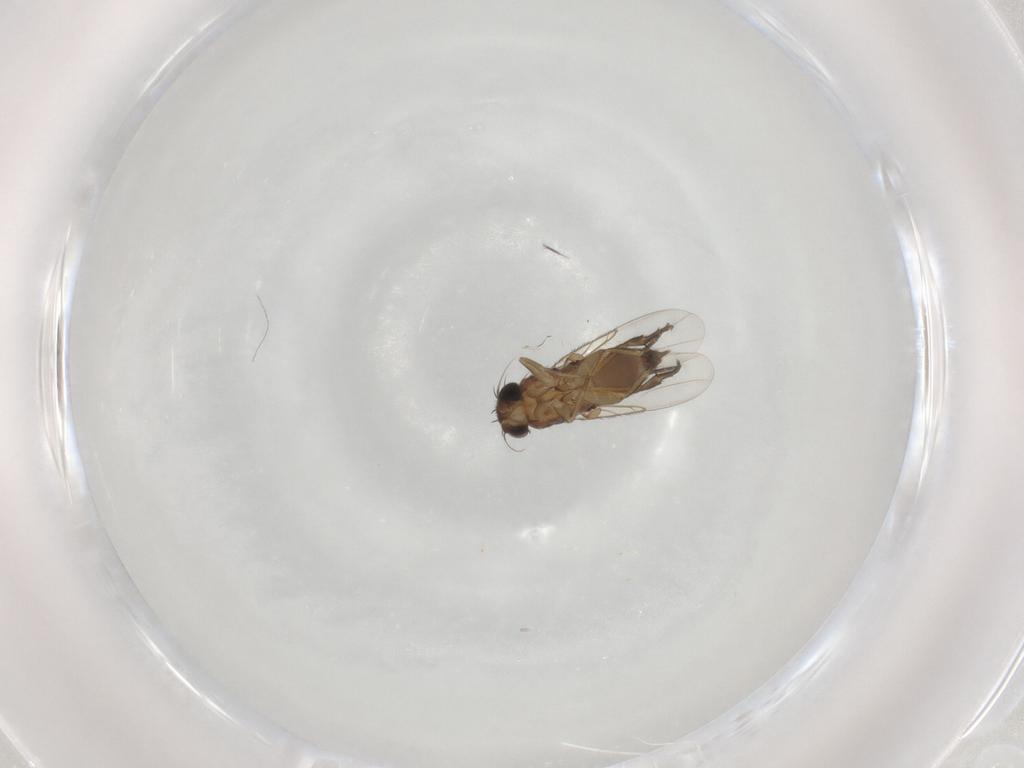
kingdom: Animalia
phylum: Arthropoda
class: Insecta
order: Diptera
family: Phoridae
